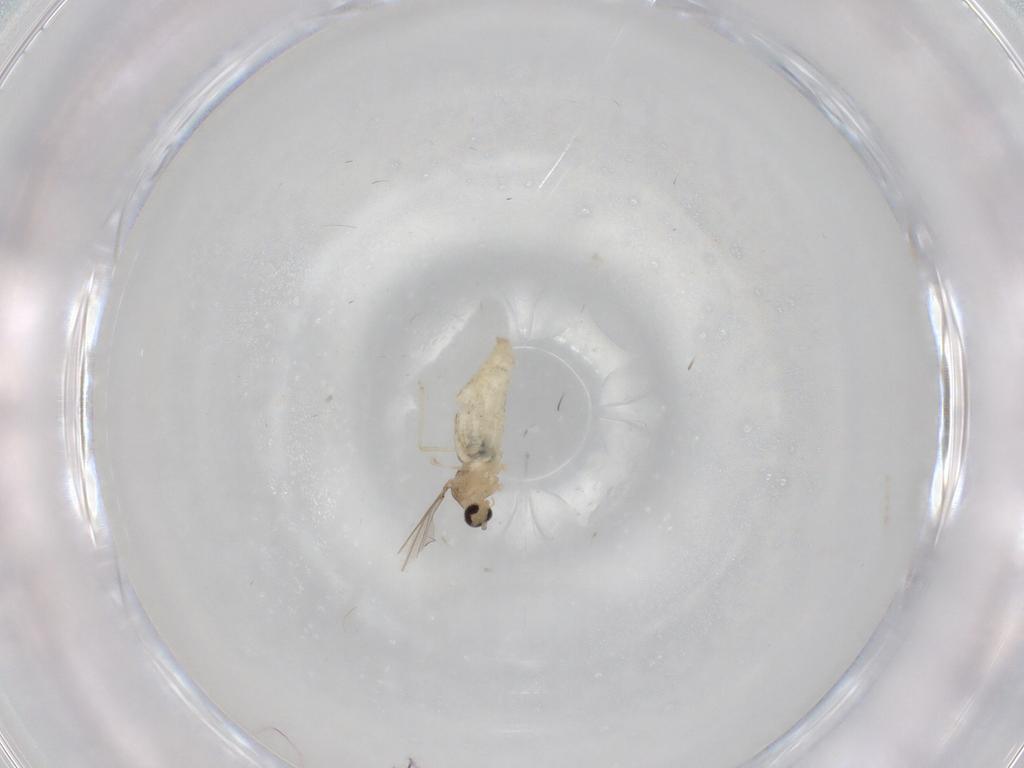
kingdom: Animalia
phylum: Arthropoda
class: Insecta
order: Diptera
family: Cecidomyiidae
